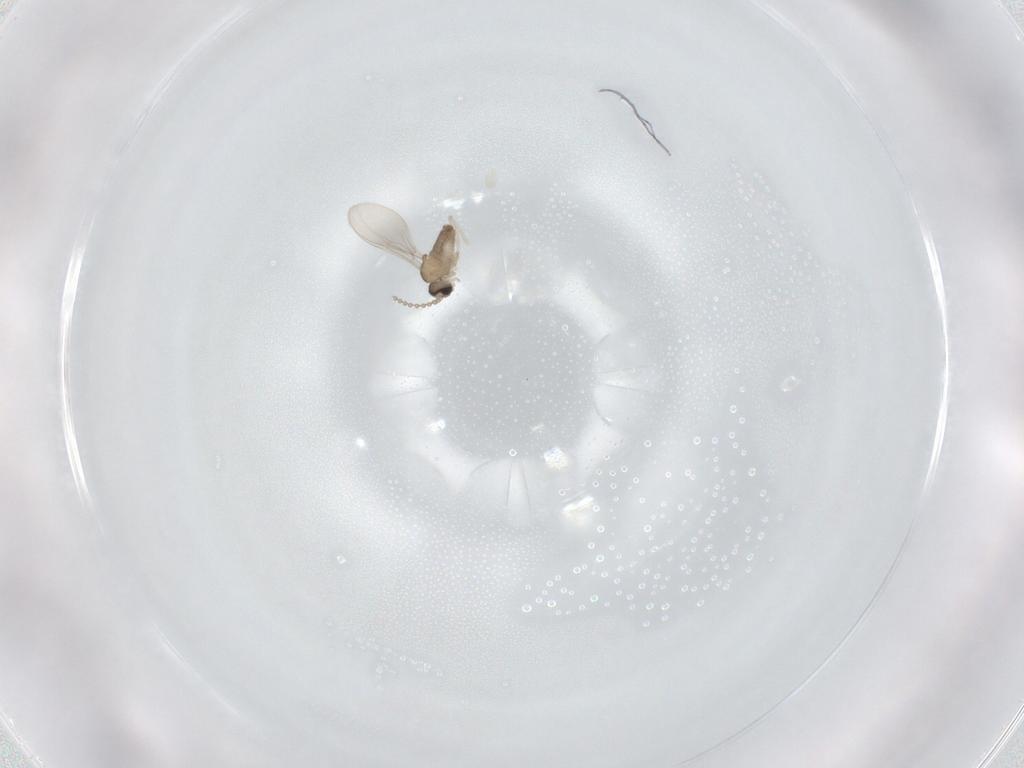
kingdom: Animalia
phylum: Arthropoda
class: Insecta
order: Diptera
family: Cecidomyiidae
